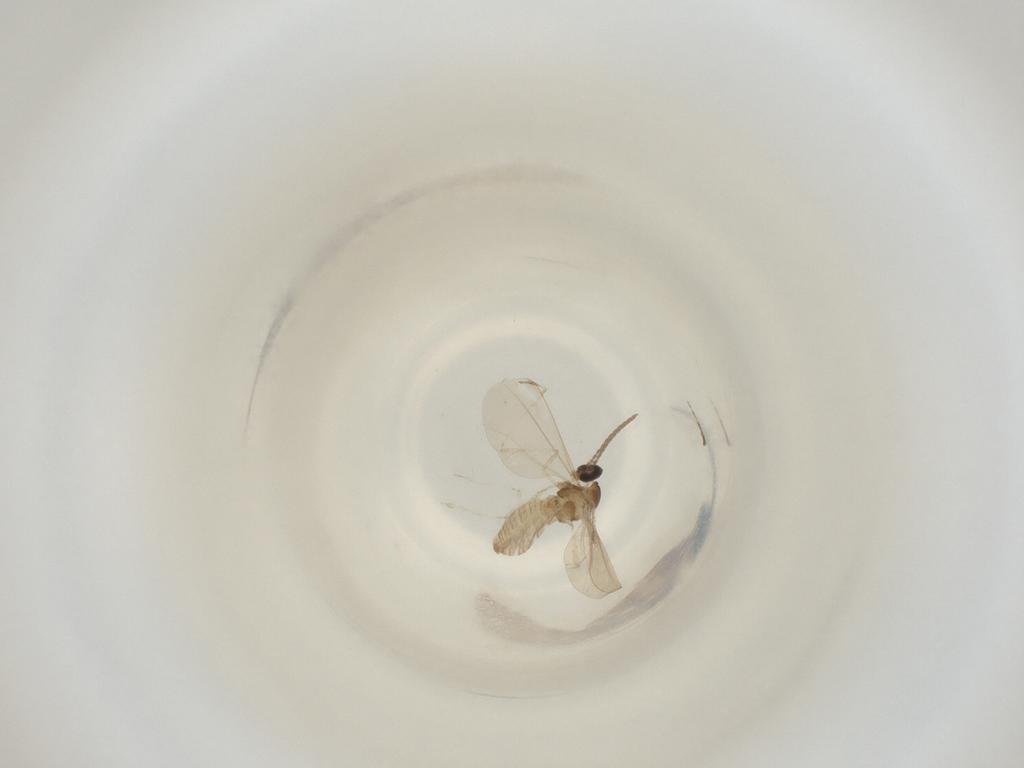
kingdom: Animalia
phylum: Arthropoda
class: Insecta
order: Diptera
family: Cecidomyiidae
